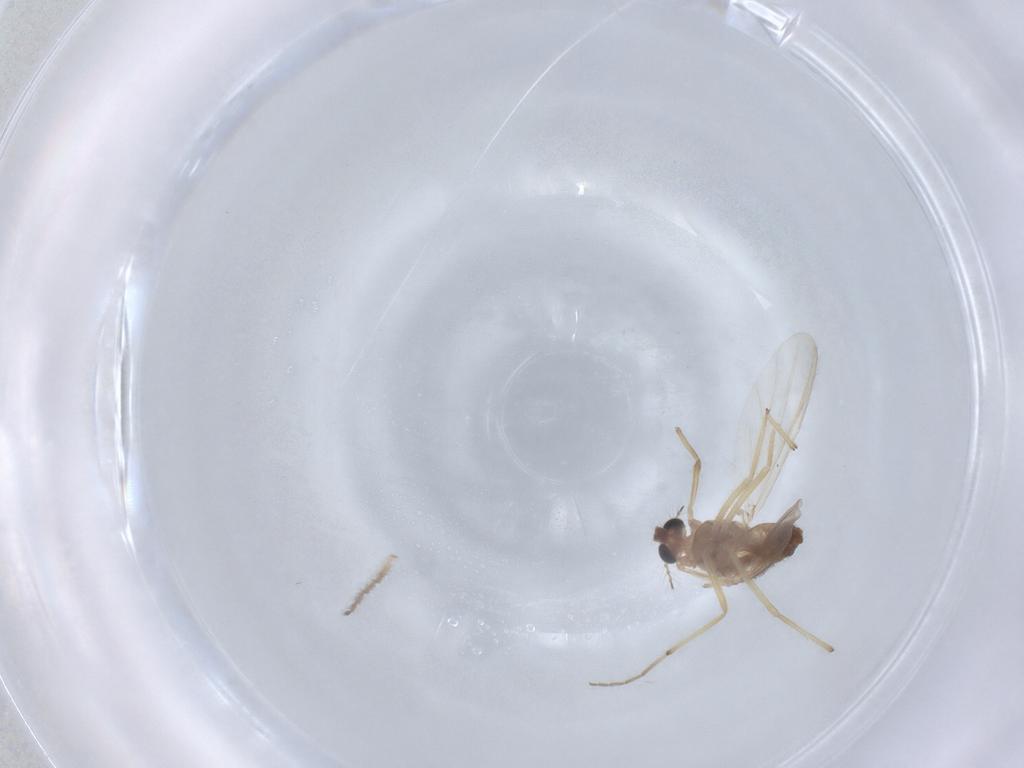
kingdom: Animalia
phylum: Arthropoda
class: Insecta
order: Diptera
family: Chironomidae
